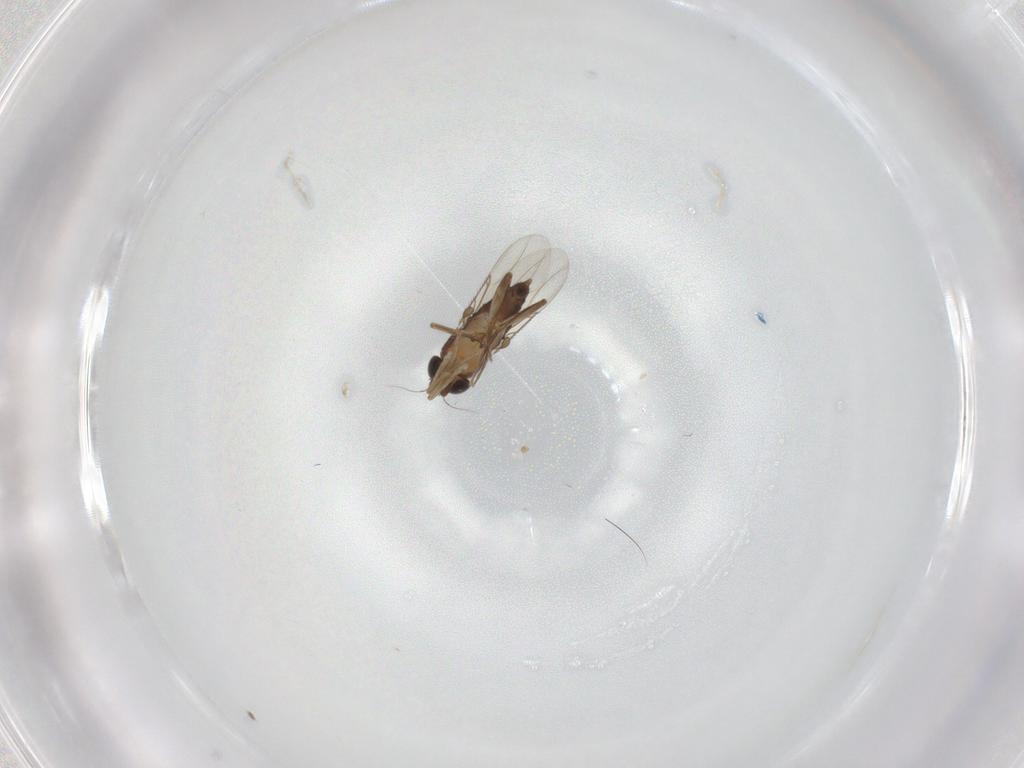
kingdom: Animalia
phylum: Arthropoda
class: Insecta
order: Diptera
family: Phoridae
